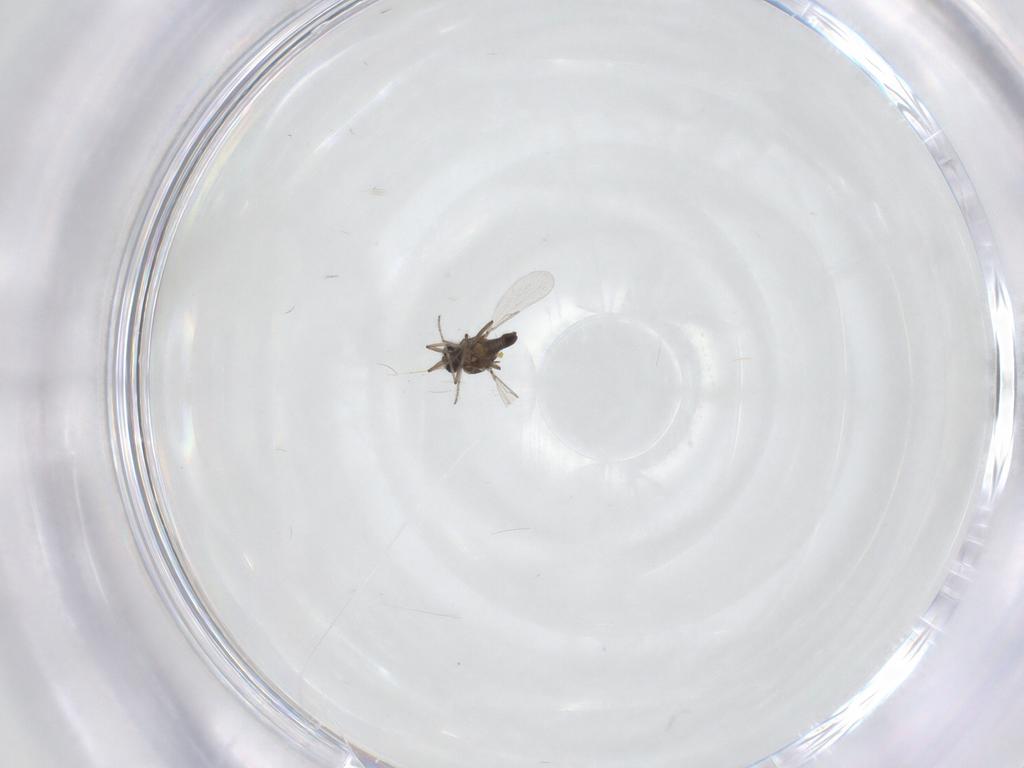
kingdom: Animalia
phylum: Arthropoda
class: Insecta
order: Diptera
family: Ceratopogonidae
